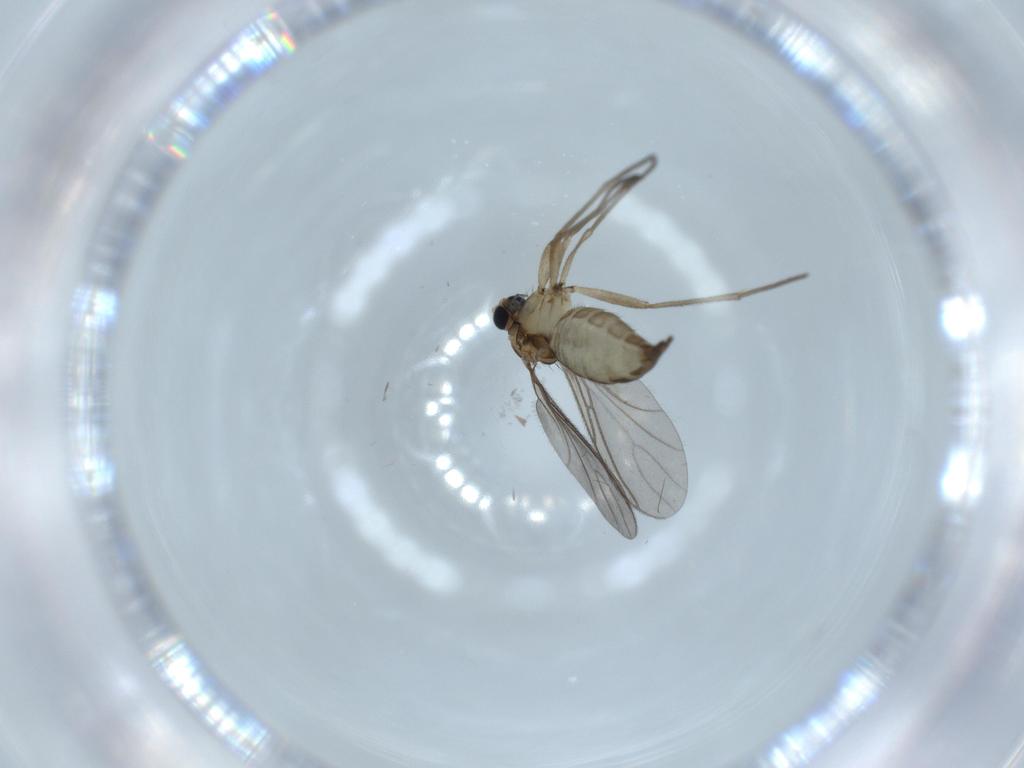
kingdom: Animalia
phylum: Arthropoda
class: Insecta
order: Diptera
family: Sciaridae
